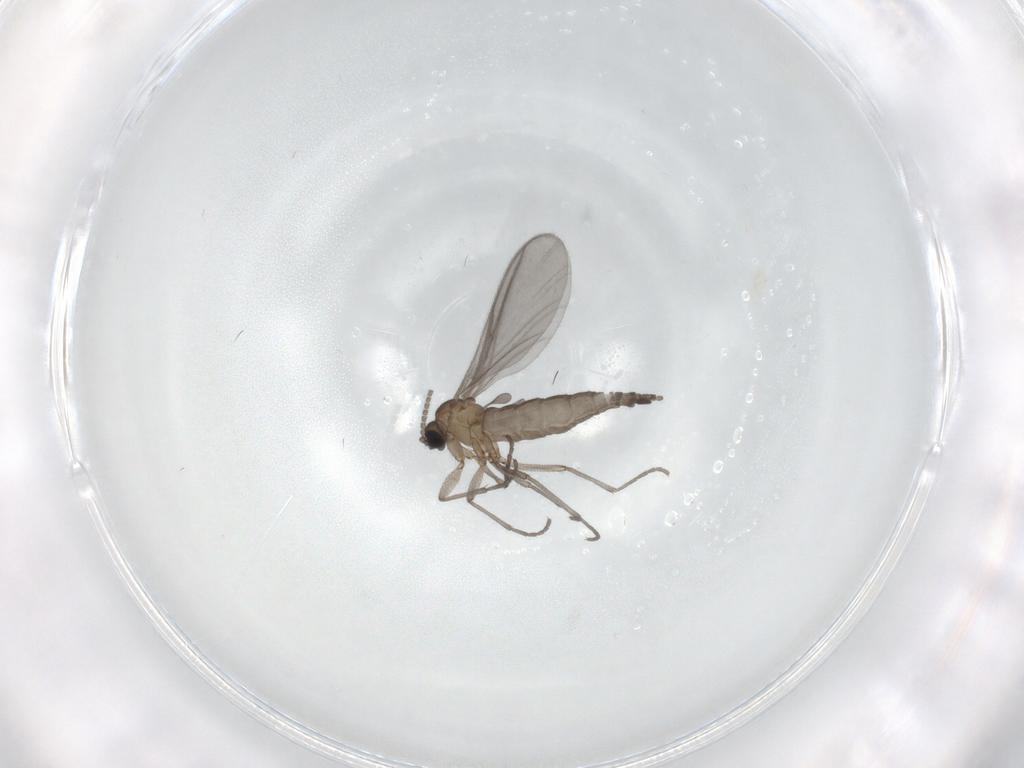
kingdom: Animalia
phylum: Arthropoda
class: Insecta
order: Diptera
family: Sciaridae
